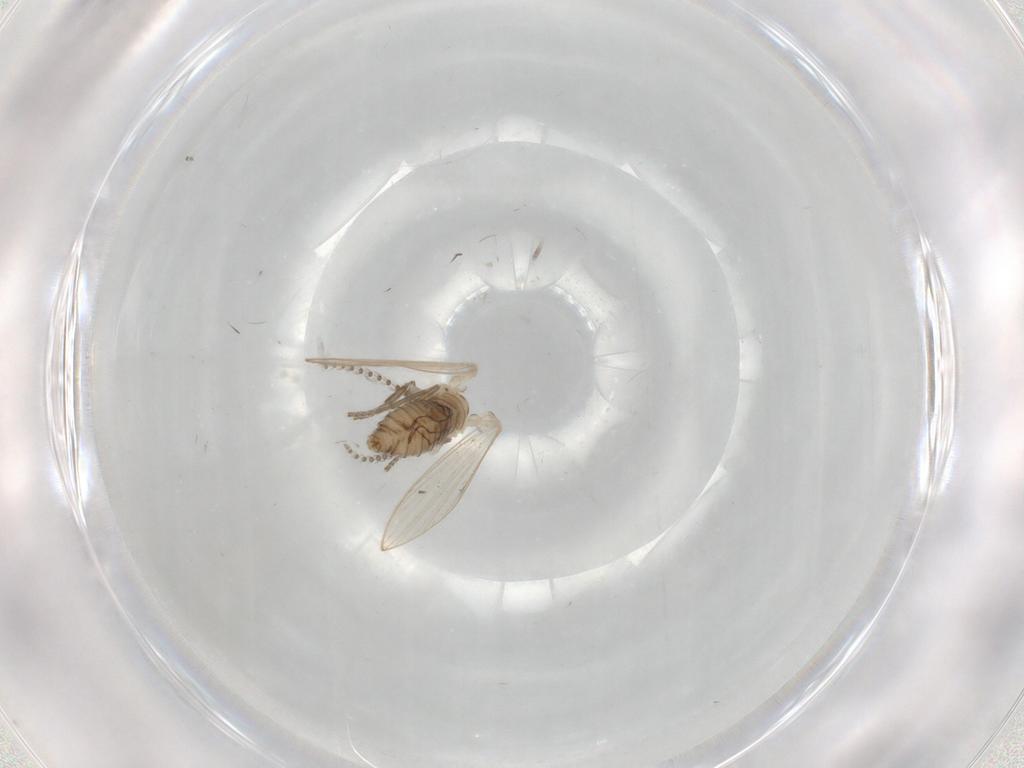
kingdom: Animalia
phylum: Arthropoda
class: Insecta
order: Diptera
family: Psychodidae
